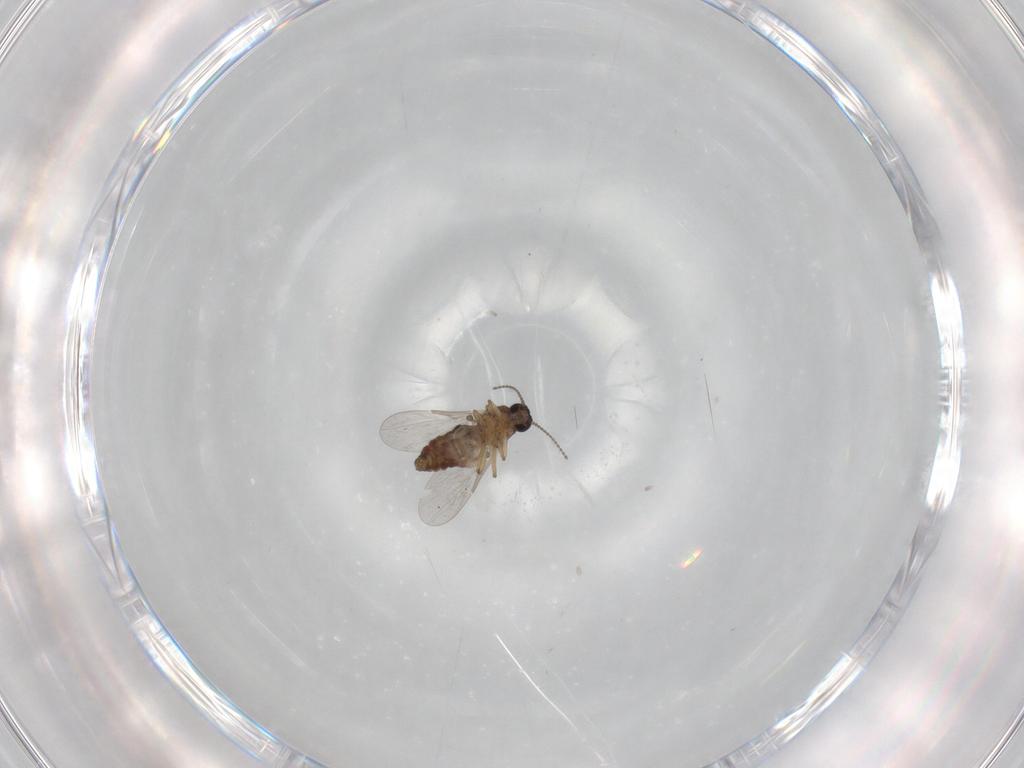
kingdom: Animalia
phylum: Arthropoda
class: Insecta
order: Diptera
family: Ceratopogonidae
